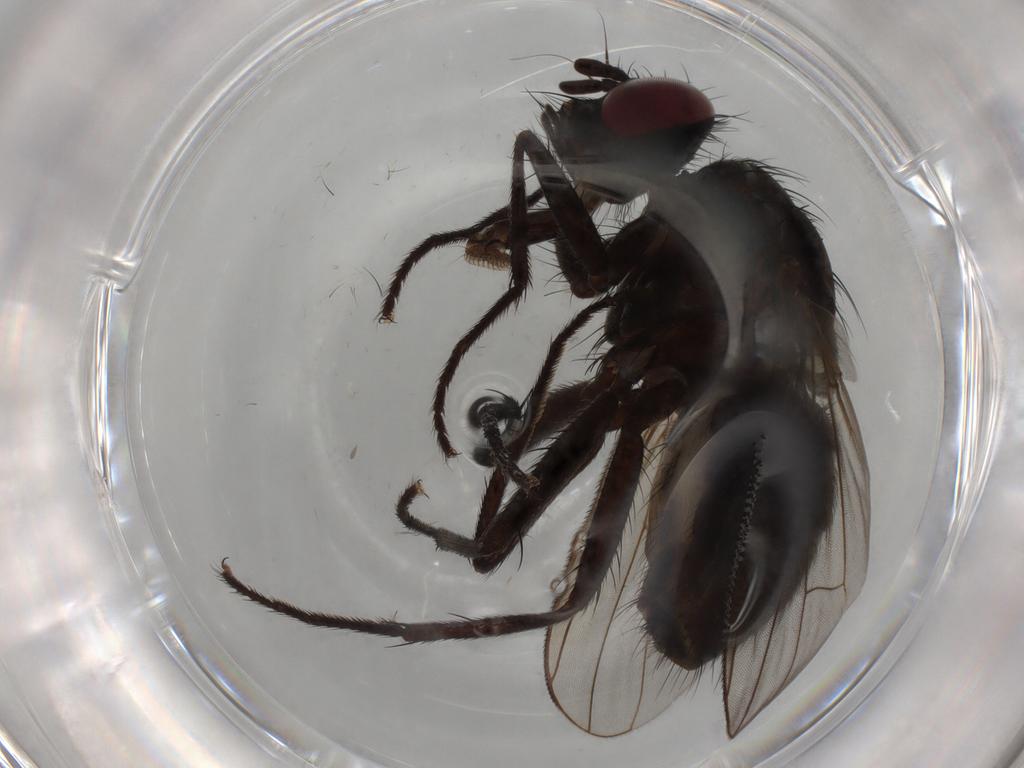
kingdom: Animalia
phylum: Arthropoda
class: Insecta
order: Diptera
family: Muscidae
